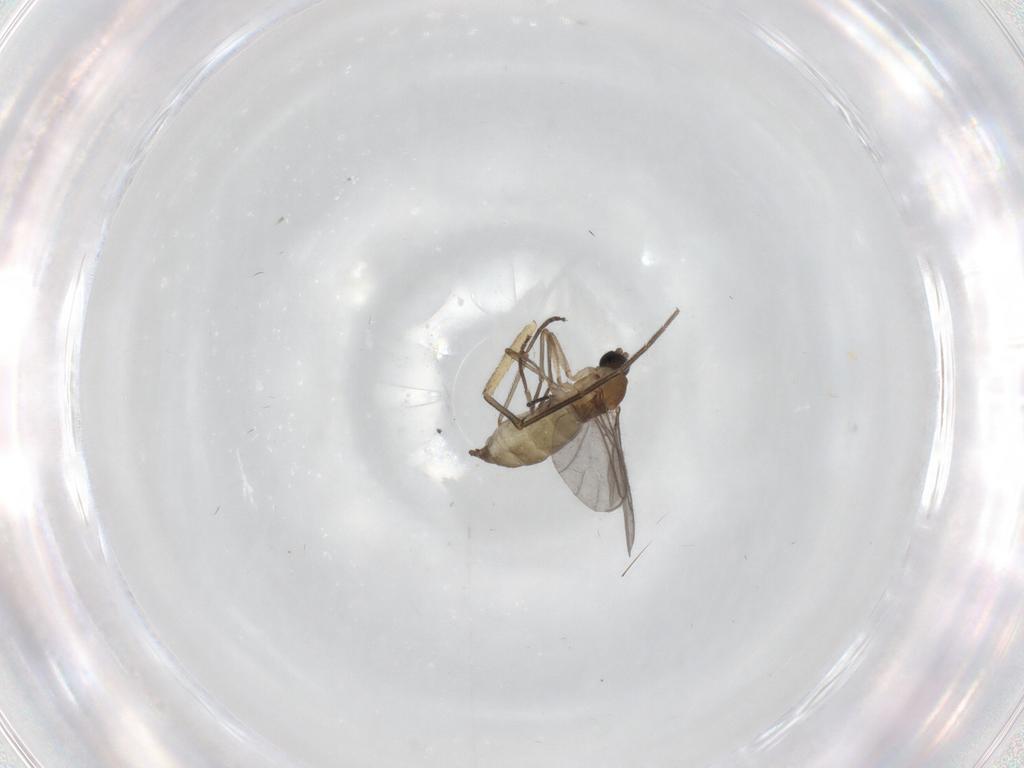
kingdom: Animalia
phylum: Arthropoda
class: Insecta
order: Diptera
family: Sciaridae
